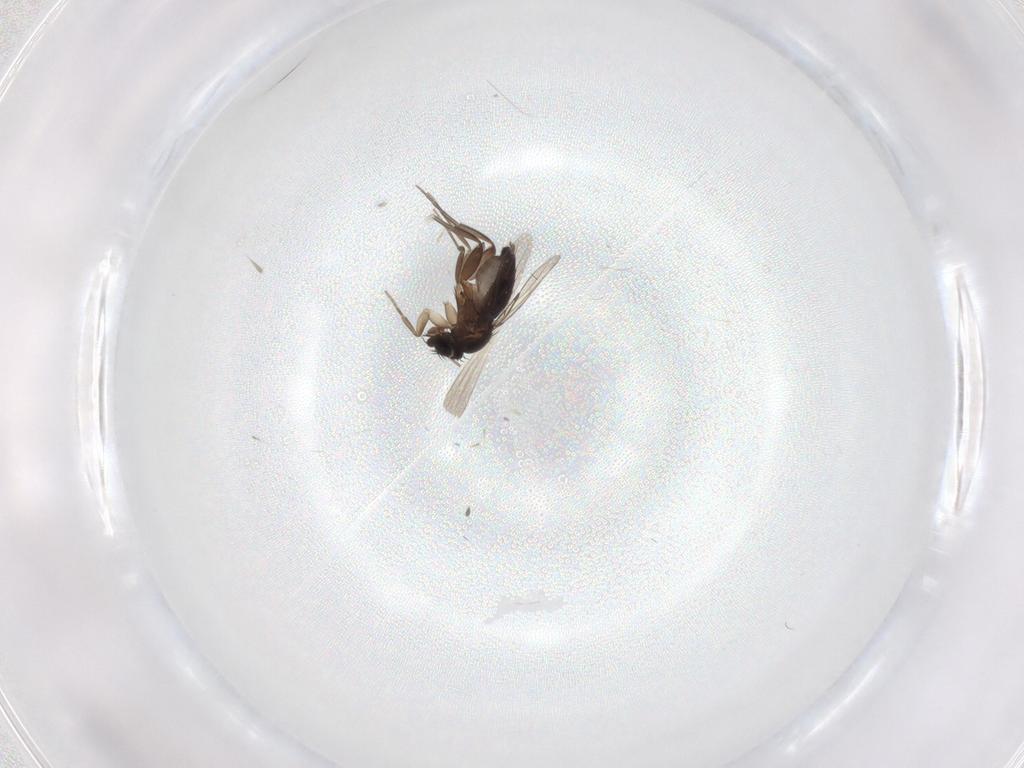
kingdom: Animalia
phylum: Arthropoda
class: Insecta
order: Diptera
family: Phoridae
